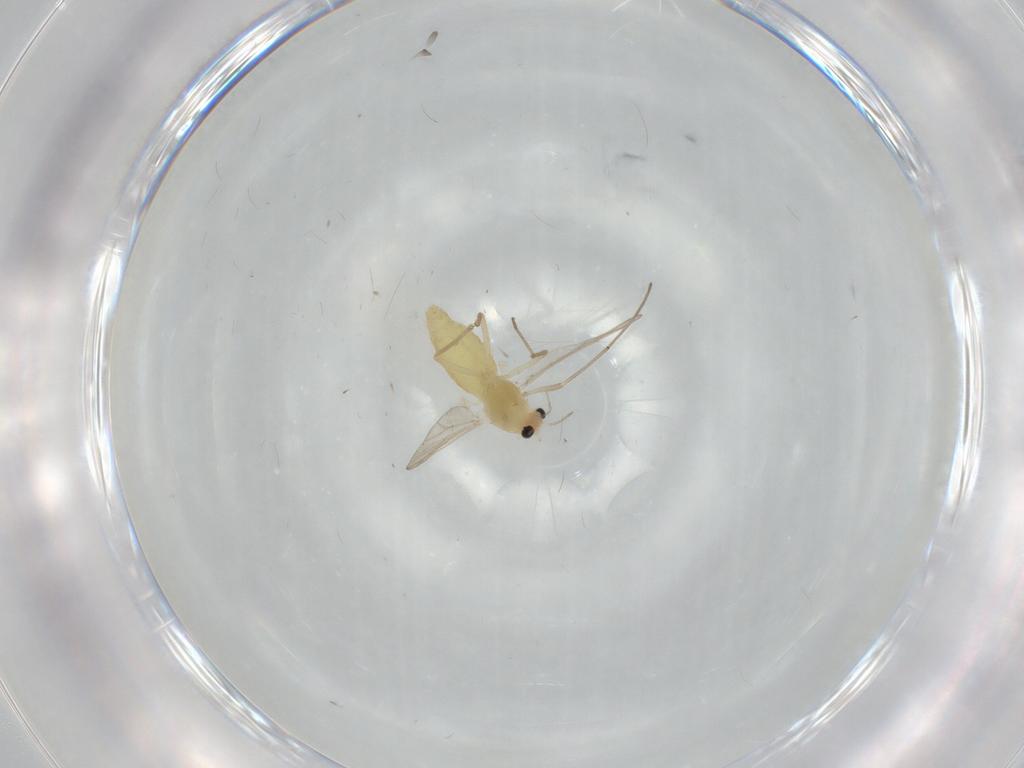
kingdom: Animalia
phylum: Arthropoda
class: Insecta
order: Diptera
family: Chironomidae
